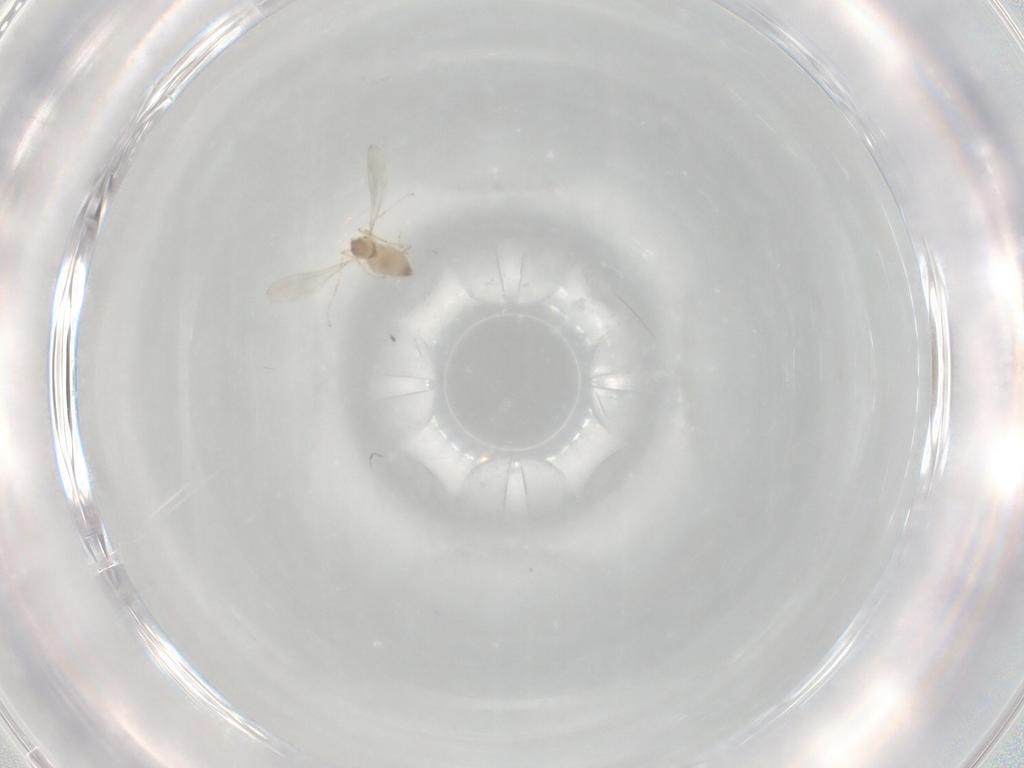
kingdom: Animalia
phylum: Arthropoda
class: Insecta
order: Diptera
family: Cecidomyiidae
